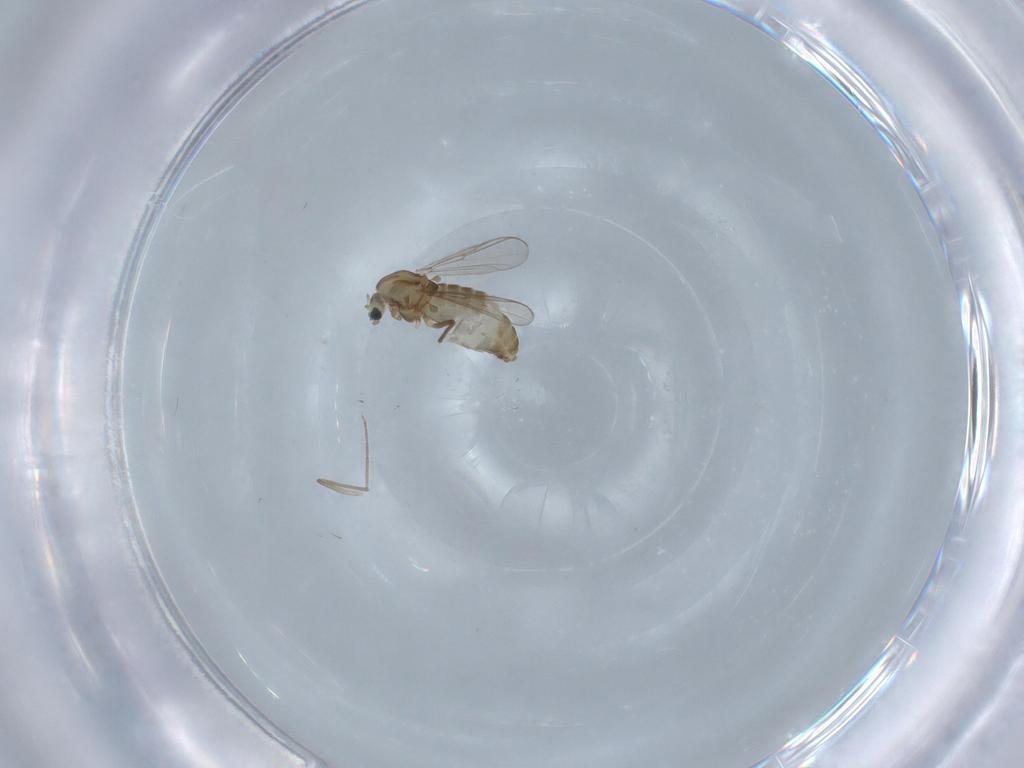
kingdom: Animalia
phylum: Arthropoda
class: Insecta
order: Diptera
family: Chironomidae
